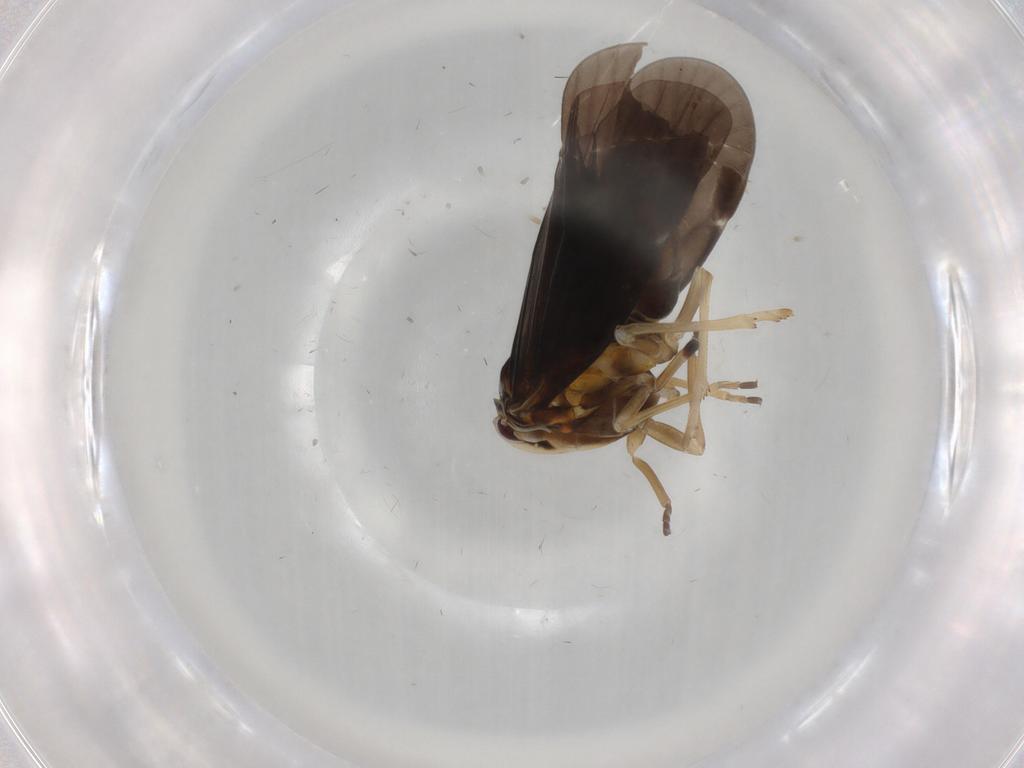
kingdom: Animalia
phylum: Arthropoda
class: Insecta
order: Hemiptera
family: Derbidae
